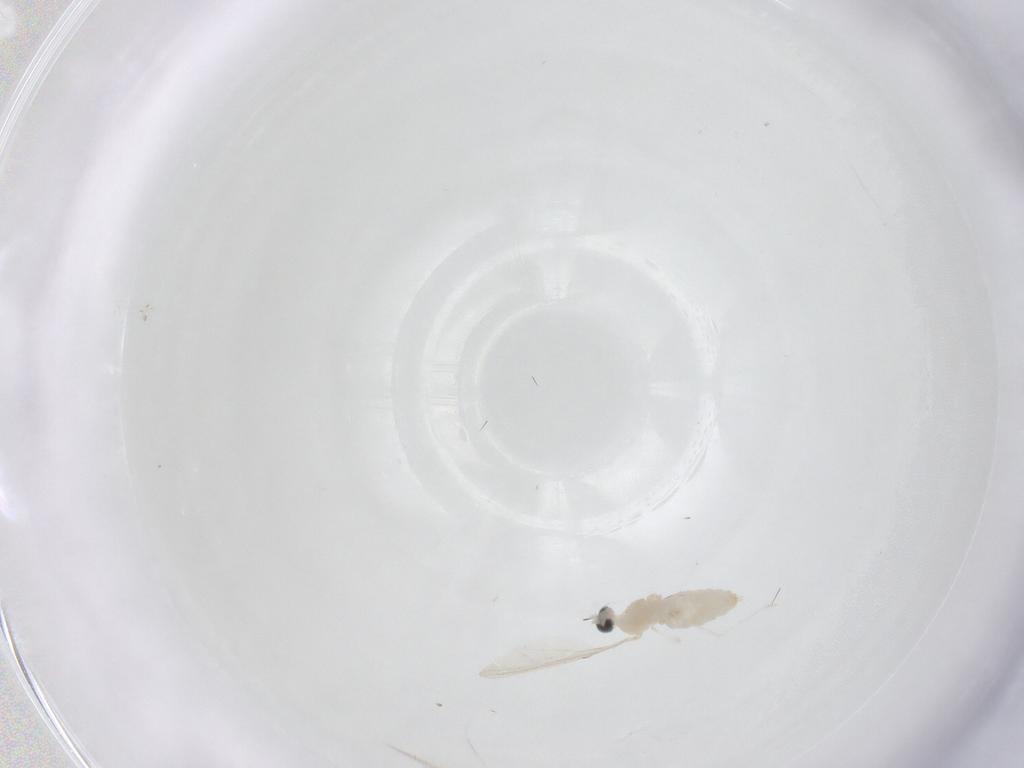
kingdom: Animalia
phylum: Arthropoda
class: Insecta
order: Diptera
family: Cecidomyiidae
